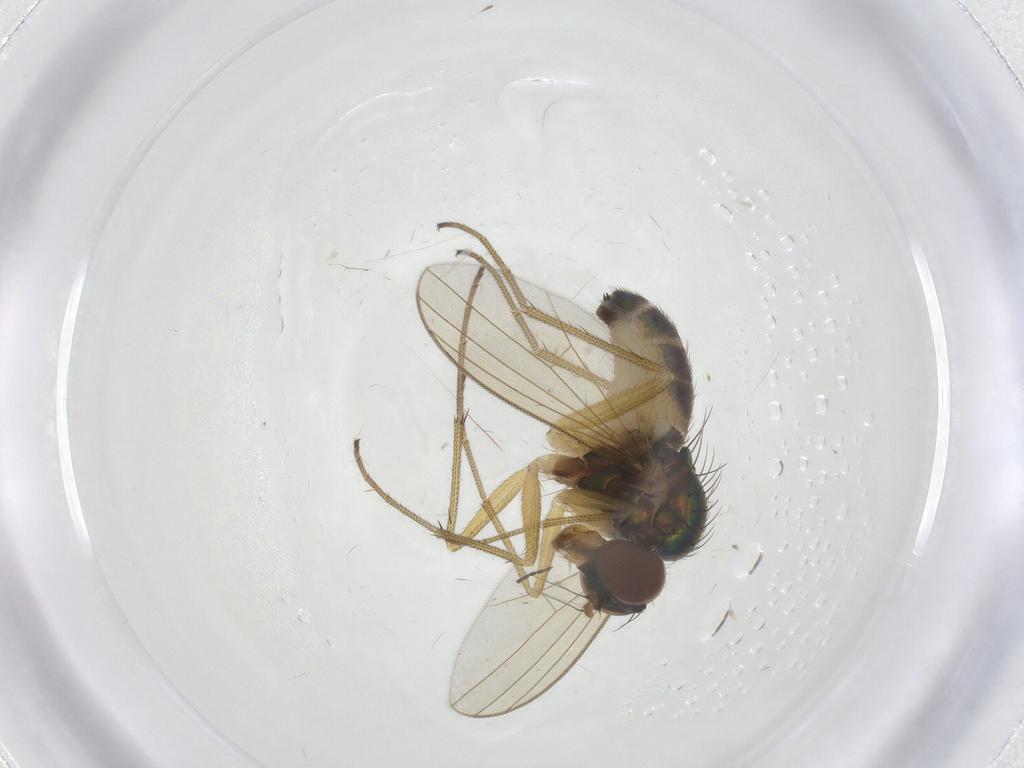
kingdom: Animalia
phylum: Arthropoda
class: Insecta
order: Diptera
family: Dolichopodidae
